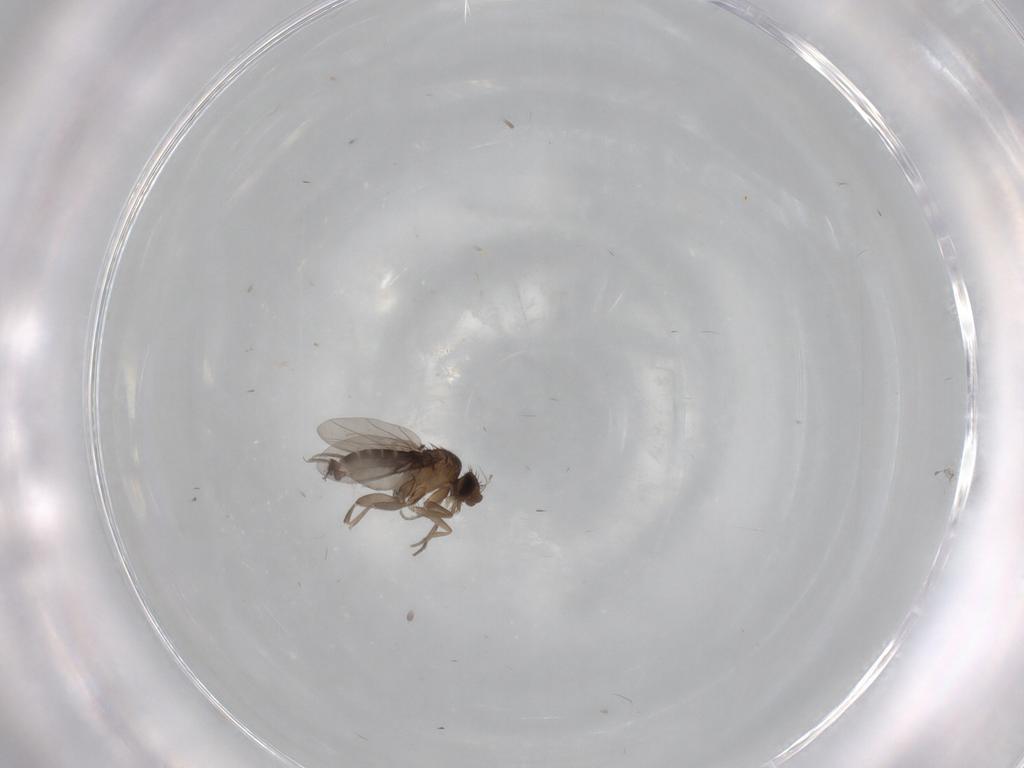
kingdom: Animalia
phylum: Arthropoda
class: Insecta
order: Diptera
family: Phoridae
